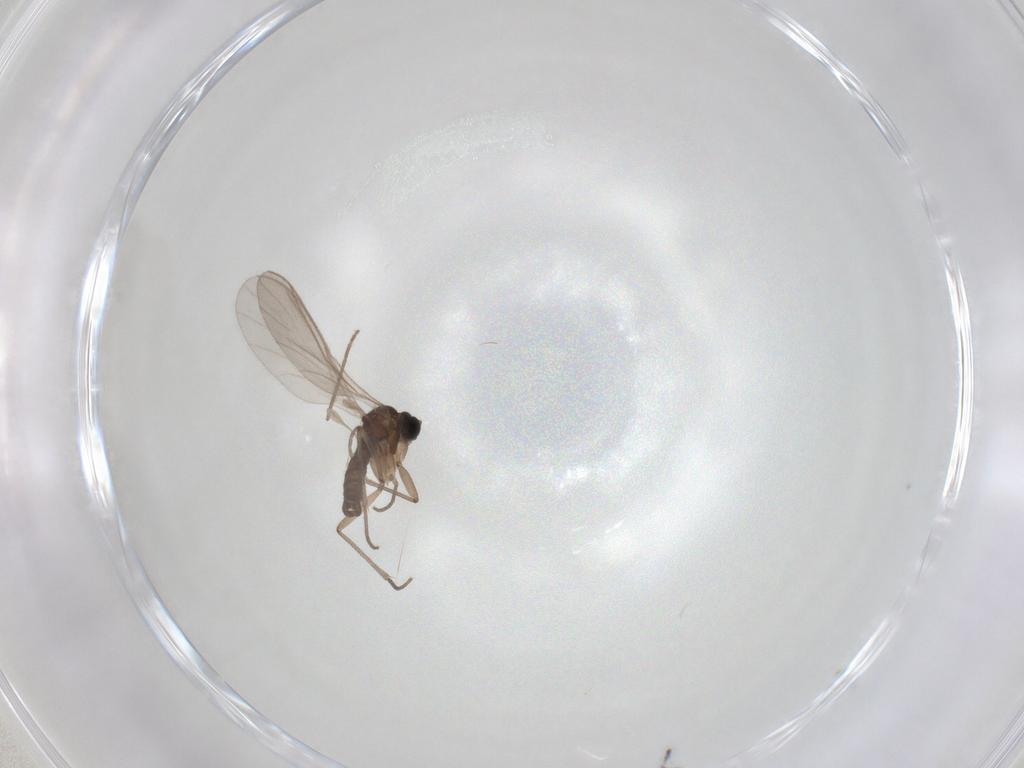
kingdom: Animalia
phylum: Arthropoda
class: Insecta
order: Diptera
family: Sciaridae
